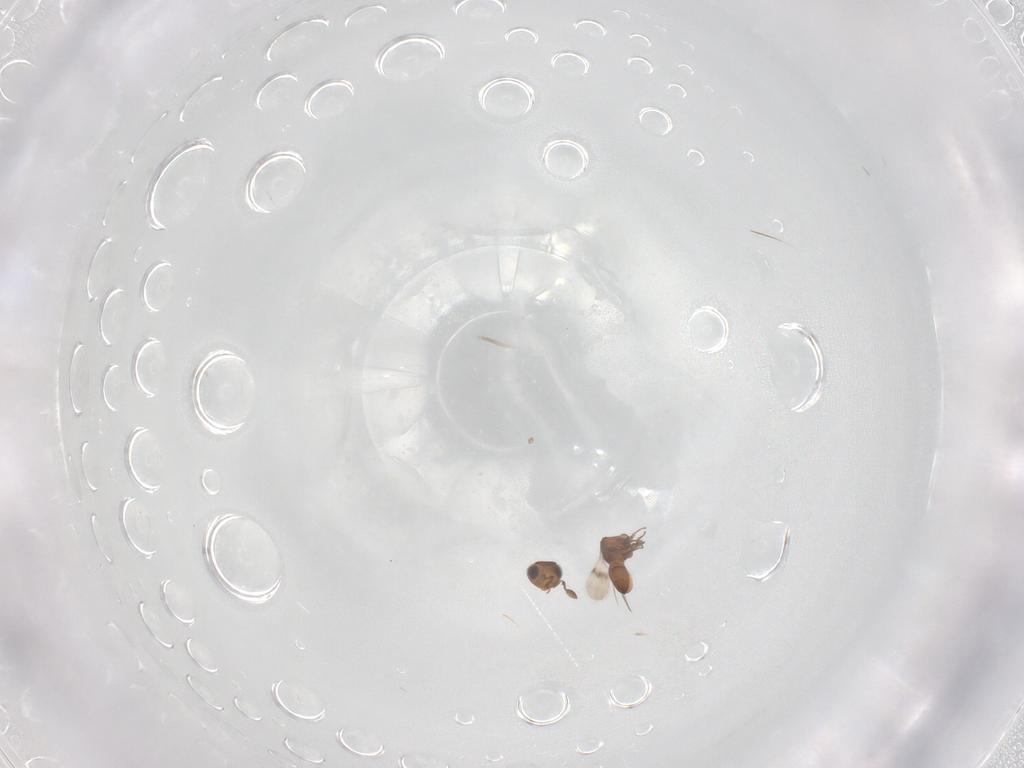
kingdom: Animalia
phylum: Arthropoda
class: Insecta
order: Hymenoptera
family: Scelionidae
